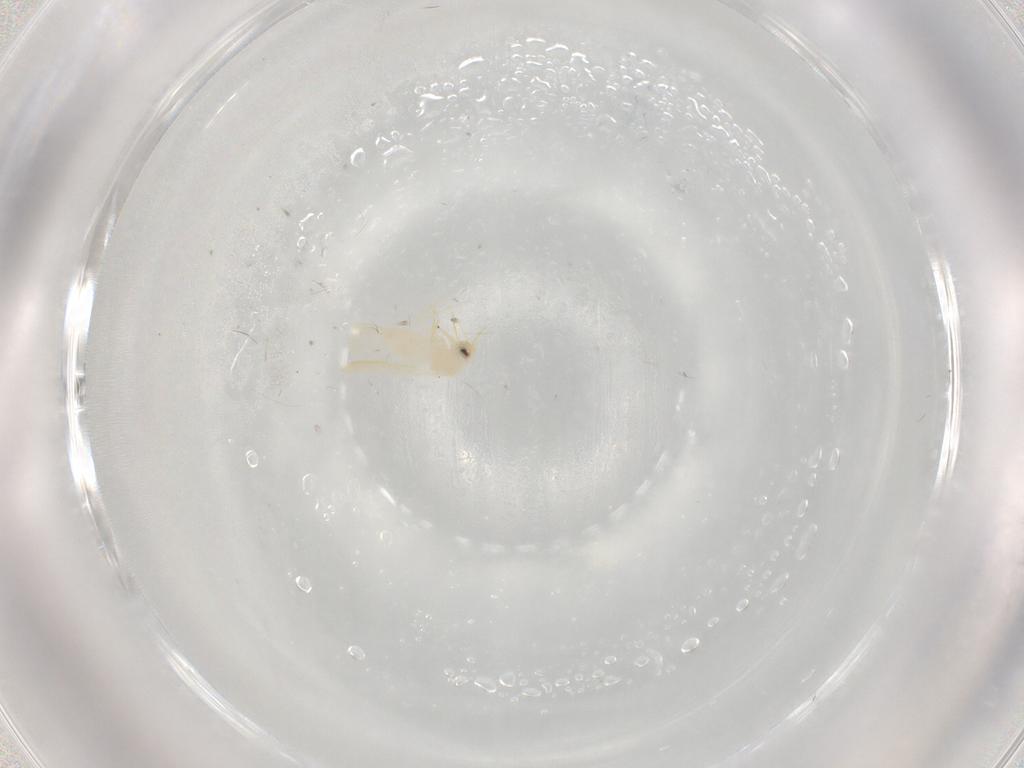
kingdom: Animalia
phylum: Arthropoda
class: Insecta
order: Hemiptera
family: Aleyrodidae
